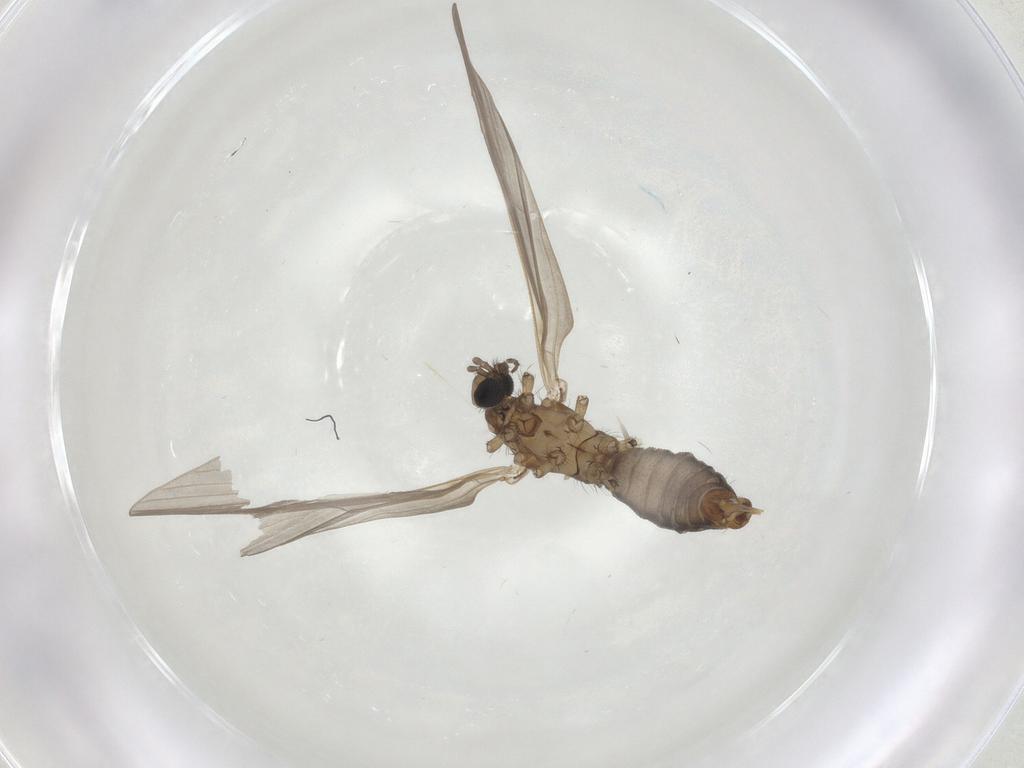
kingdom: Animalia
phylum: Arthropoda
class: Insecta
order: Diptera
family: Limoniidae
